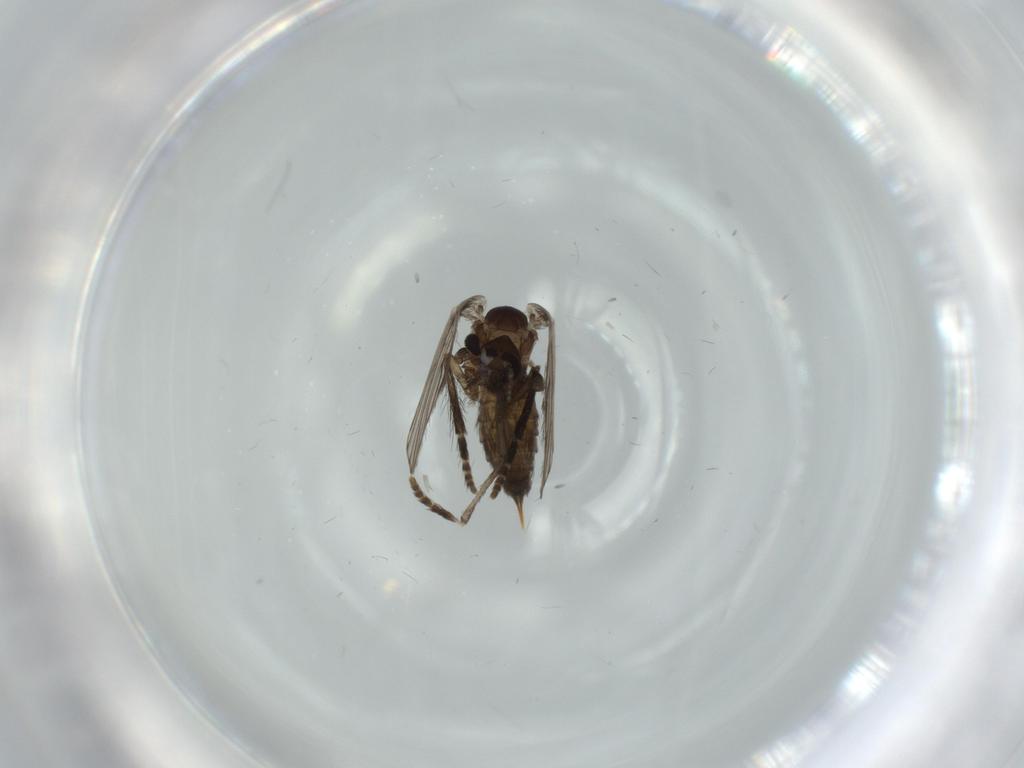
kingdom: Animalia
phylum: Arthropoda
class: Insecta
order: Diptera
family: Psychodidae
